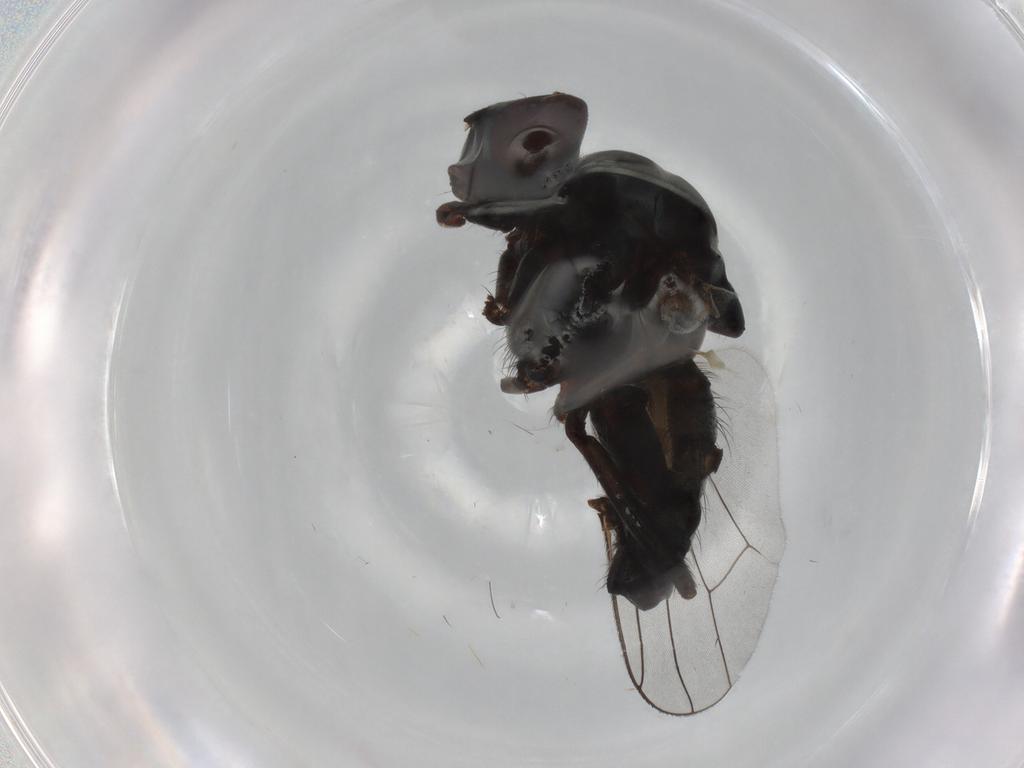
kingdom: Animalia
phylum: Arthropoda
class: Insecta
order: Diptera
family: Anthomyiidae
